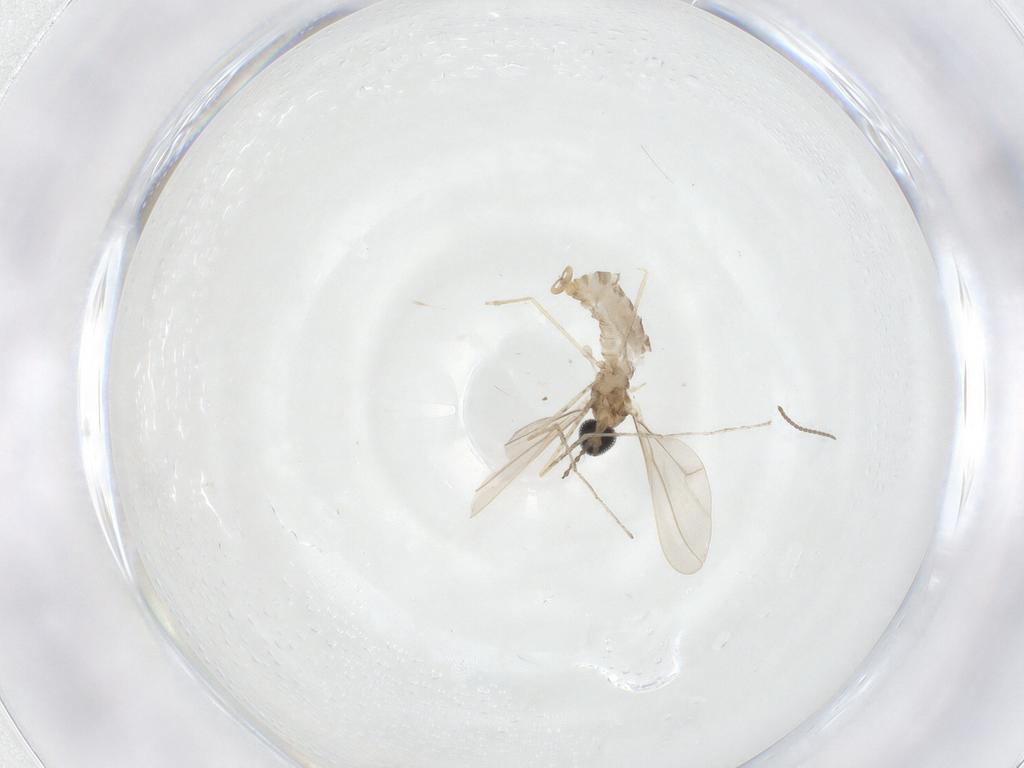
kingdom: Animalia
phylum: Arthropoda
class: Insecta
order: Diptera
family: Cecidomyiidae
